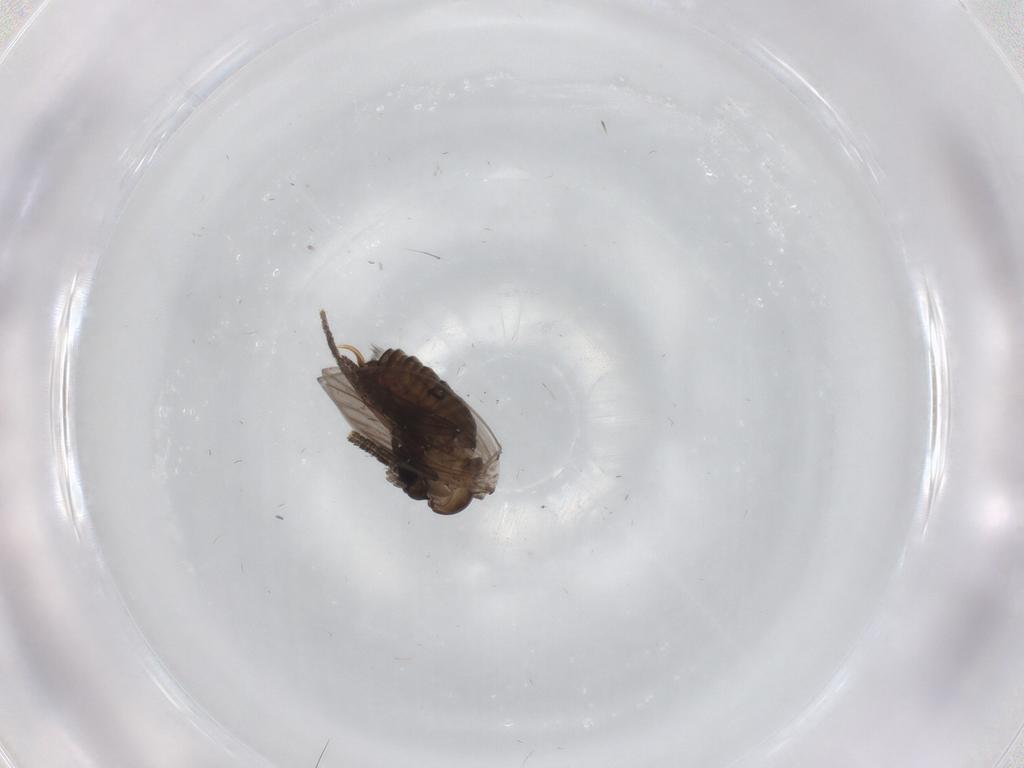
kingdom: Animalia
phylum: Arthropoda
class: Insecta
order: Diptera
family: Psychodidae
